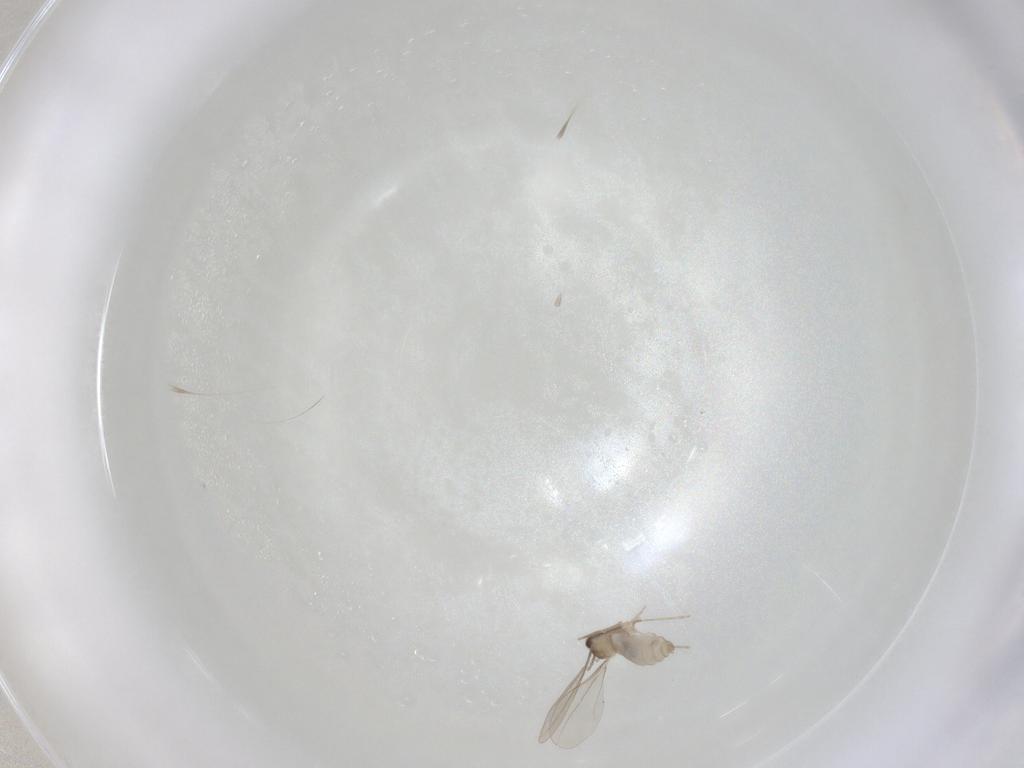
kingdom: Animalia
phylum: Arthropoda
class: Insecta
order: Diptera
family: Cecidomyiidae
